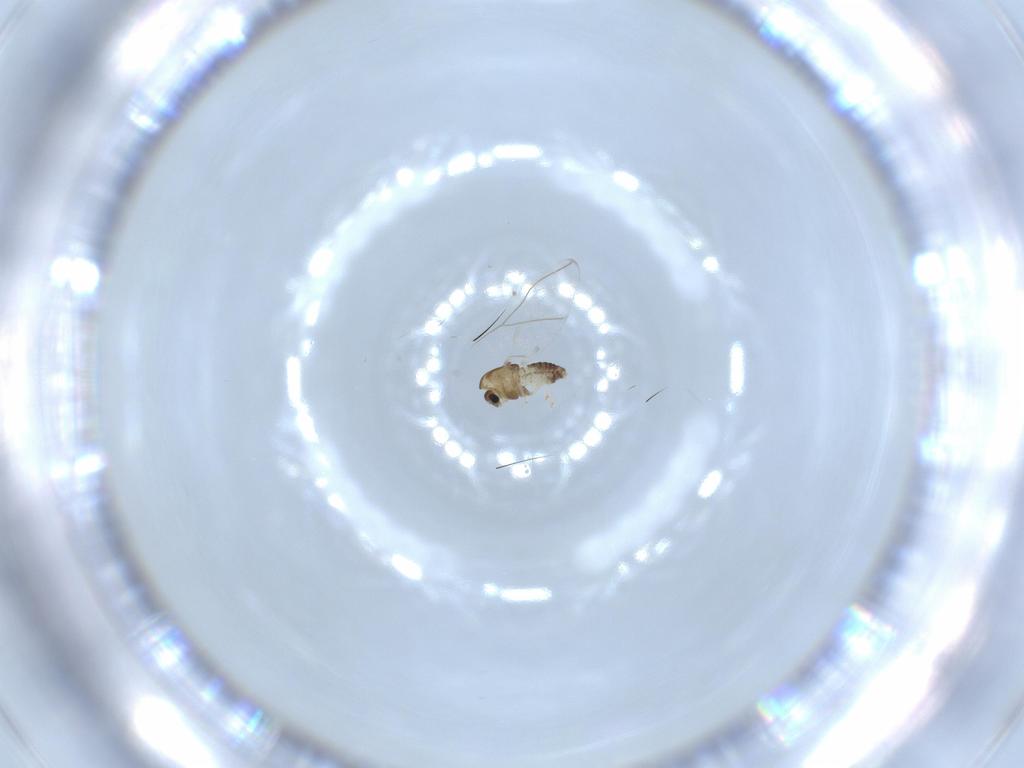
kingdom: Animalia
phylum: Arthropoda
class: Insecta
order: Diptera
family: Chironomidae
